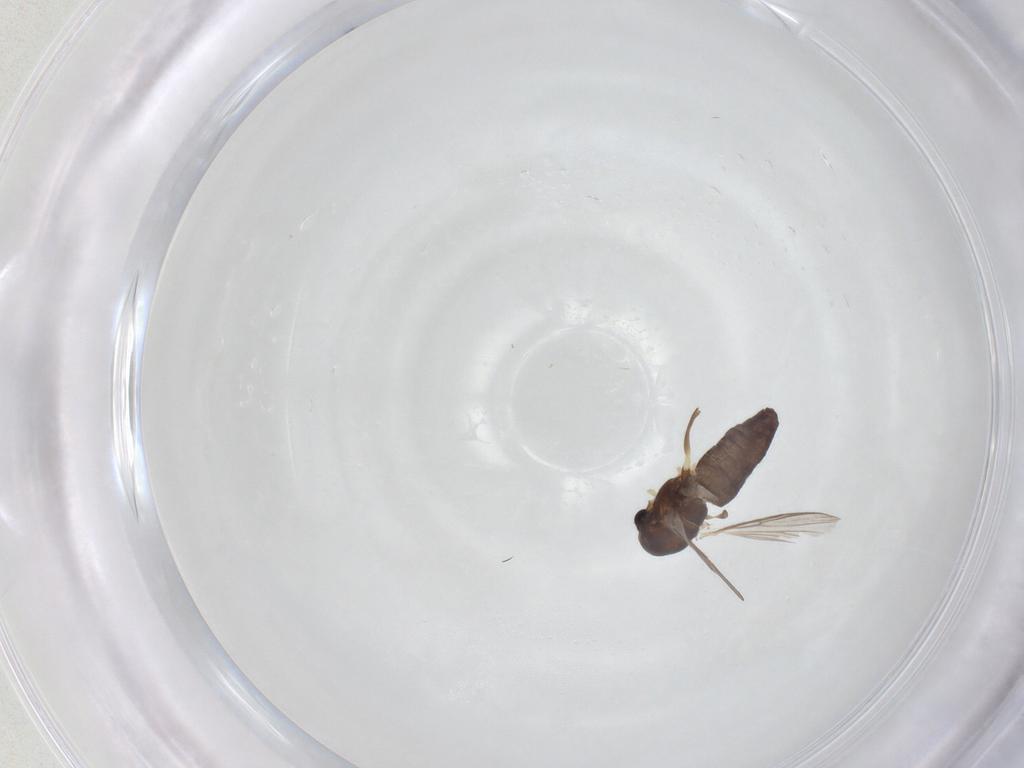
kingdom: Animalia
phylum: Arthropoda
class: Insecta
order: Diptera
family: Chironomidae
